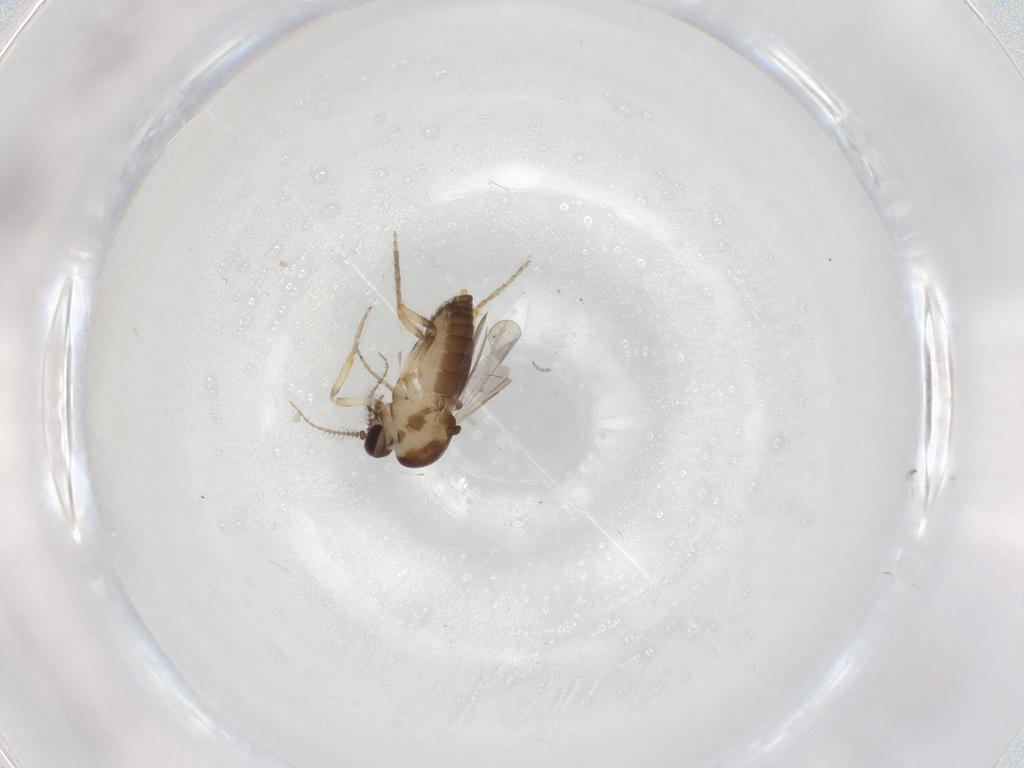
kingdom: Animalia
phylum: Arthropoda
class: Insecta
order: Diptera
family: Ceratopogonidae
